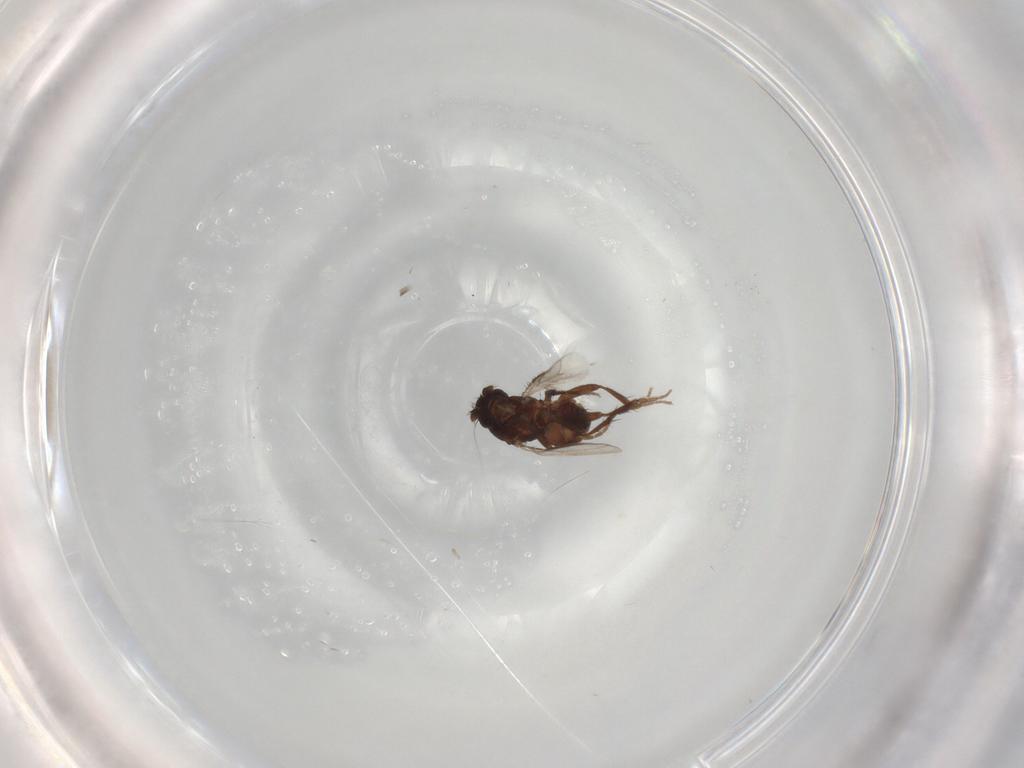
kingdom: Animalia
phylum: Arthropoda
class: Insecta
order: Diptera
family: Sphaeroceridae
